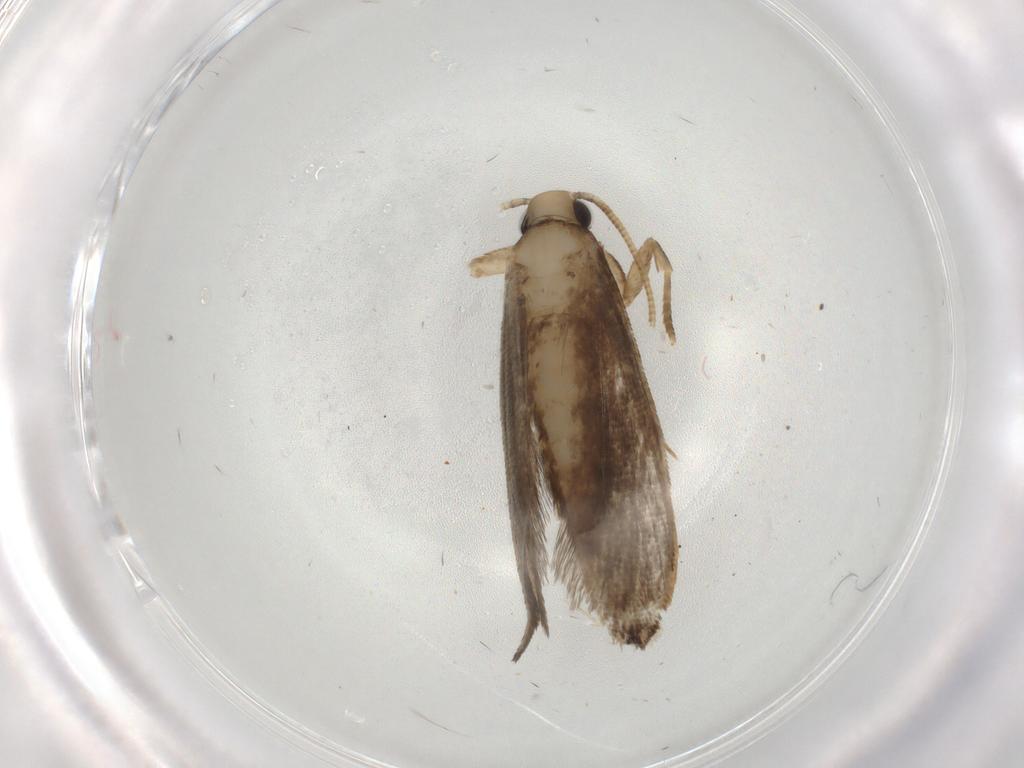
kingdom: Animalia
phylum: Arthropoda
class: Insecta
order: Lepidoptera
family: Tineidae
